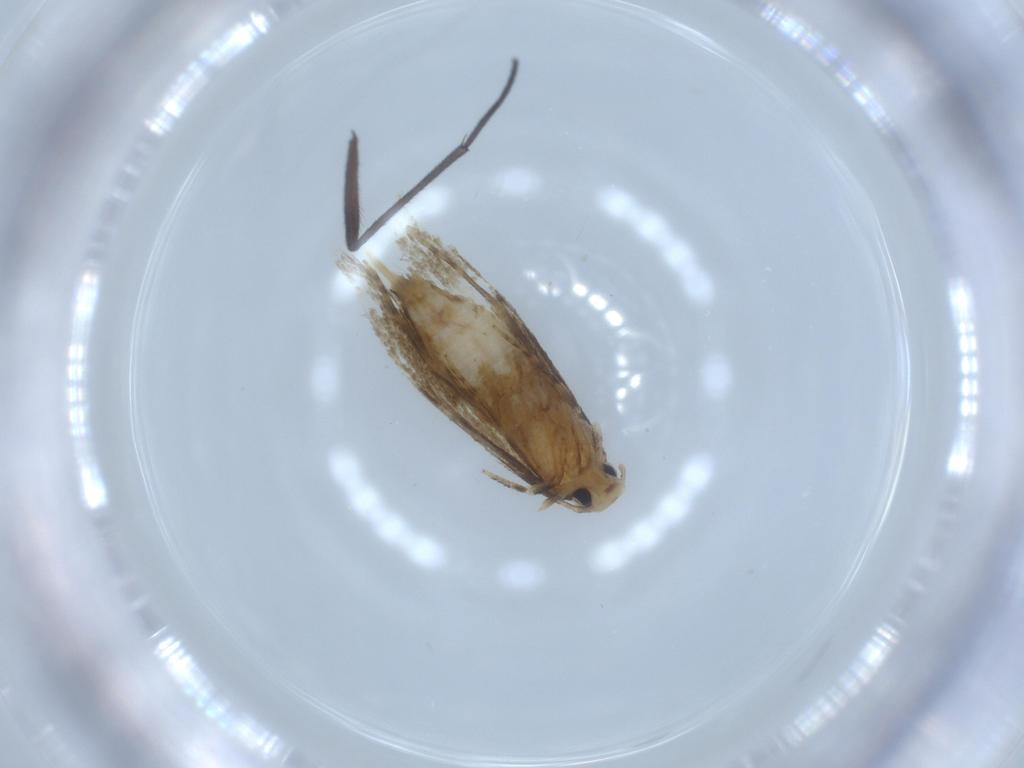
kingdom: Animalia
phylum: Arthropoda
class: Insecta
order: Lepidoptera
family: Tineidae
